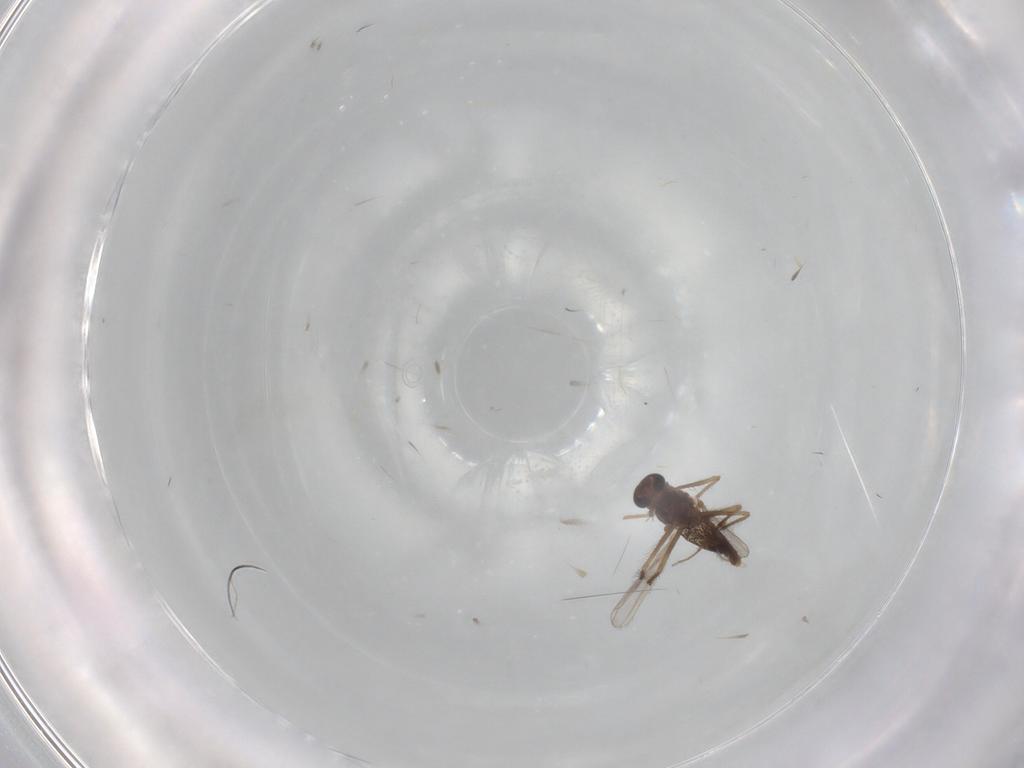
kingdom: Animalia
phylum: Arthropoda
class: Insecta
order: Diptera
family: Chironomidae
